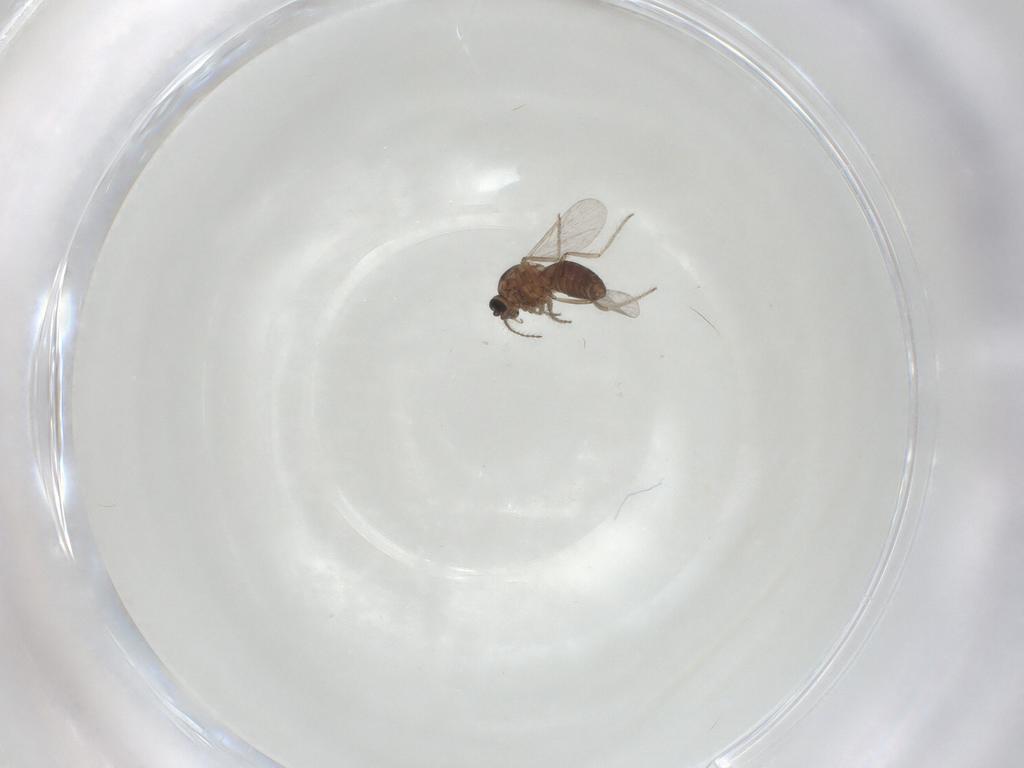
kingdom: Animalia
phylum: Arthropoda
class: Insecta
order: Diptera
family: Ceratopogonidae
